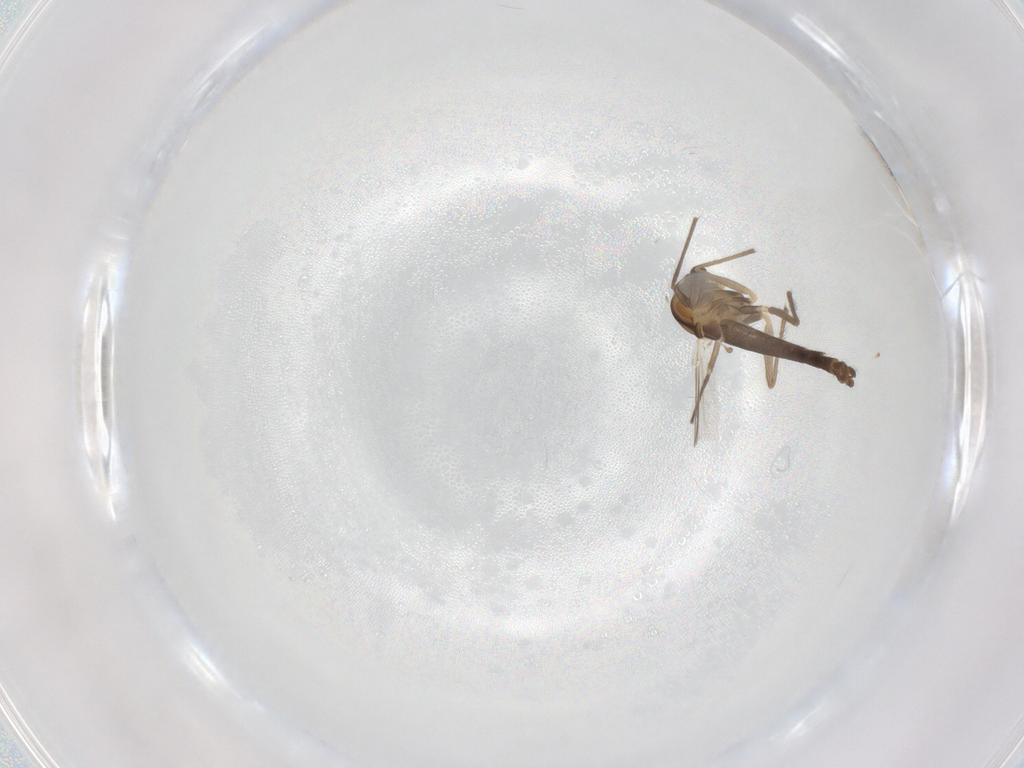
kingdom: Animalia
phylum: Arthropoda
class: Insecta
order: Diptera
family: Chironomidae
